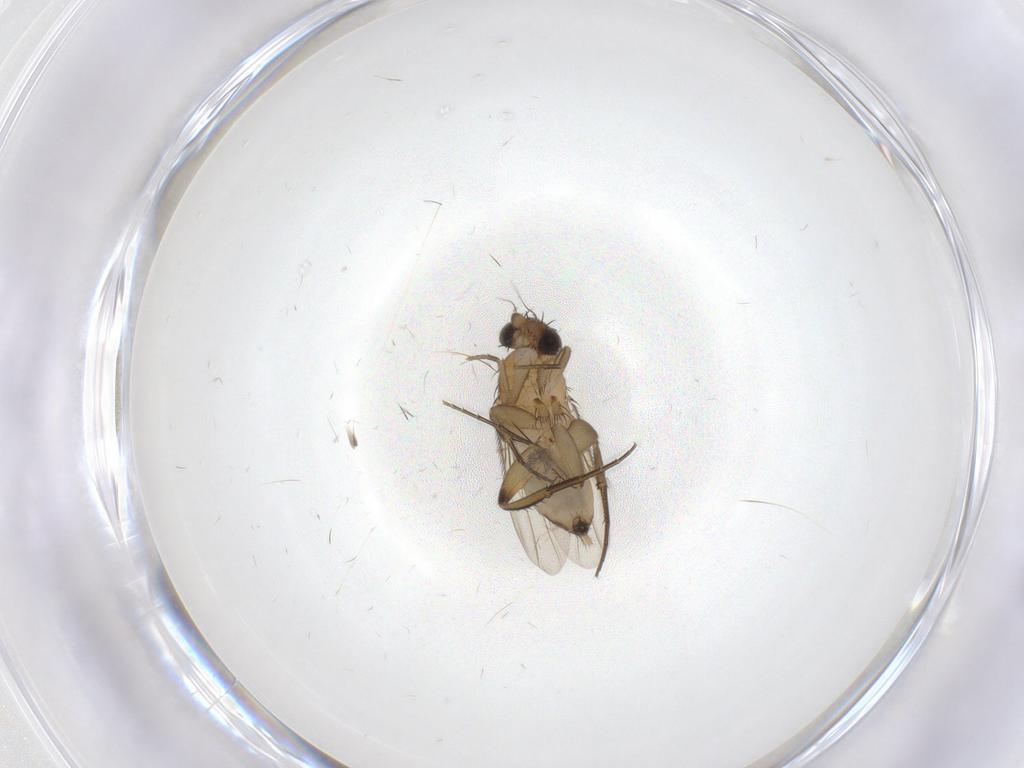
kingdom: Animalia
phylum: Arthropoda
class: Insecta
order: Diptera
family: Phoridae
